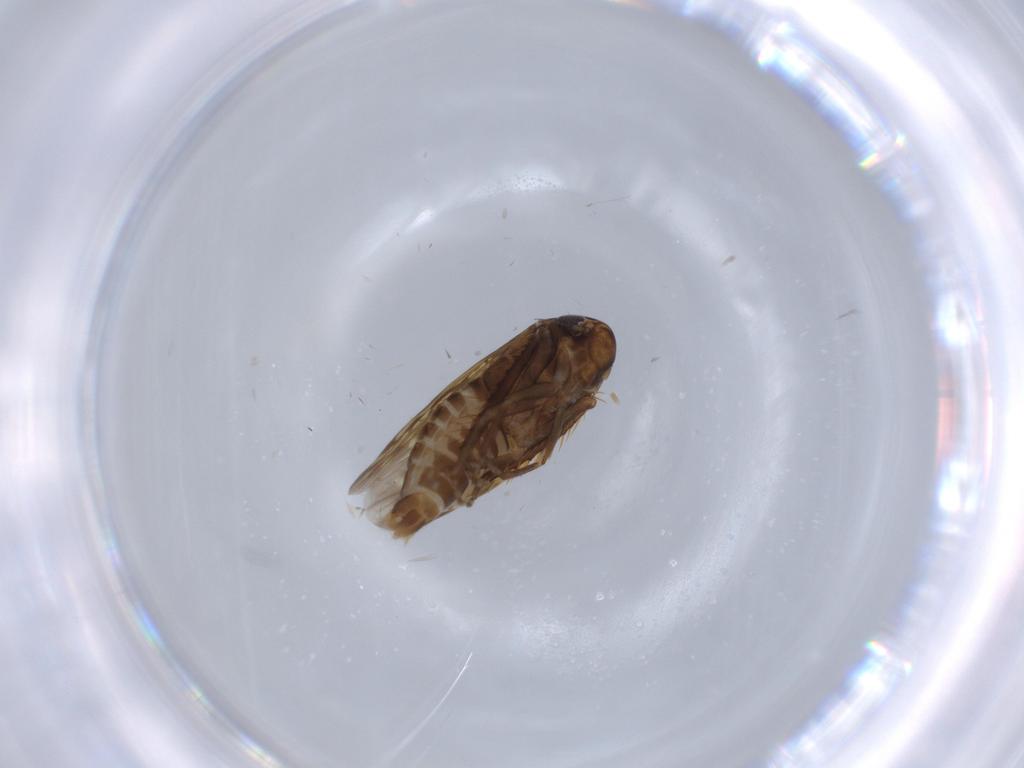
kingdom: Animalia
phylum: Arthropoda
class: Insecta
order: Hemiptera
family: Cicadellidae
